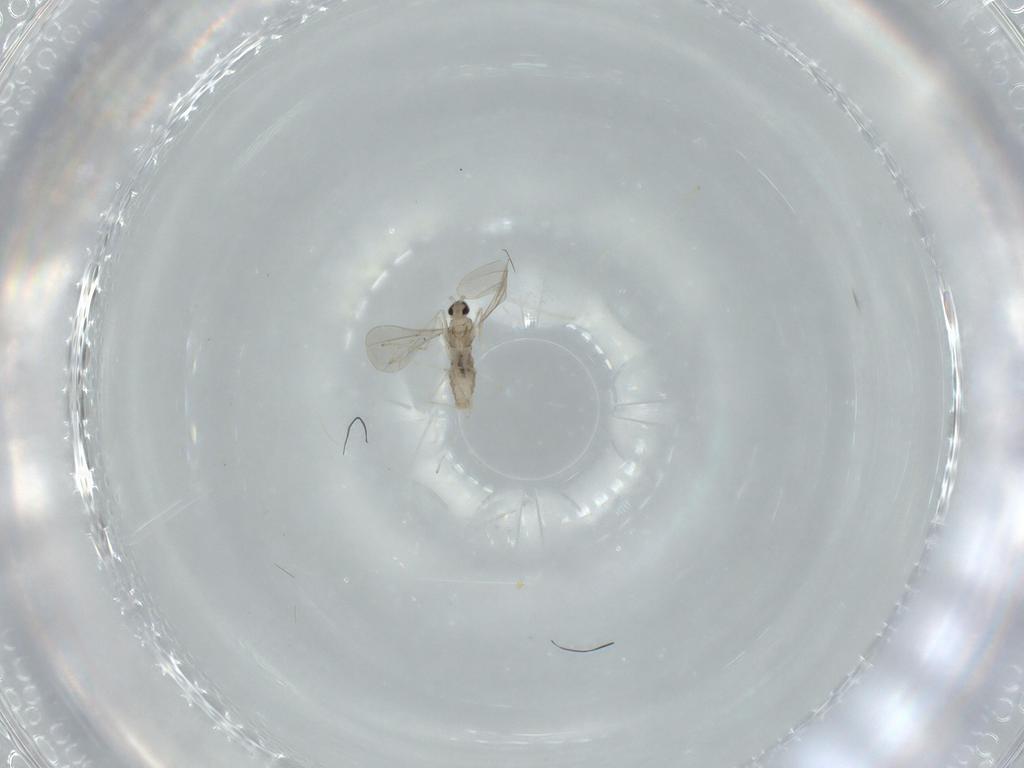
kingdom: Animalia
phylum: Arthropoda
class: Insecta
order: Diptera
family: Cecidomyiidae
